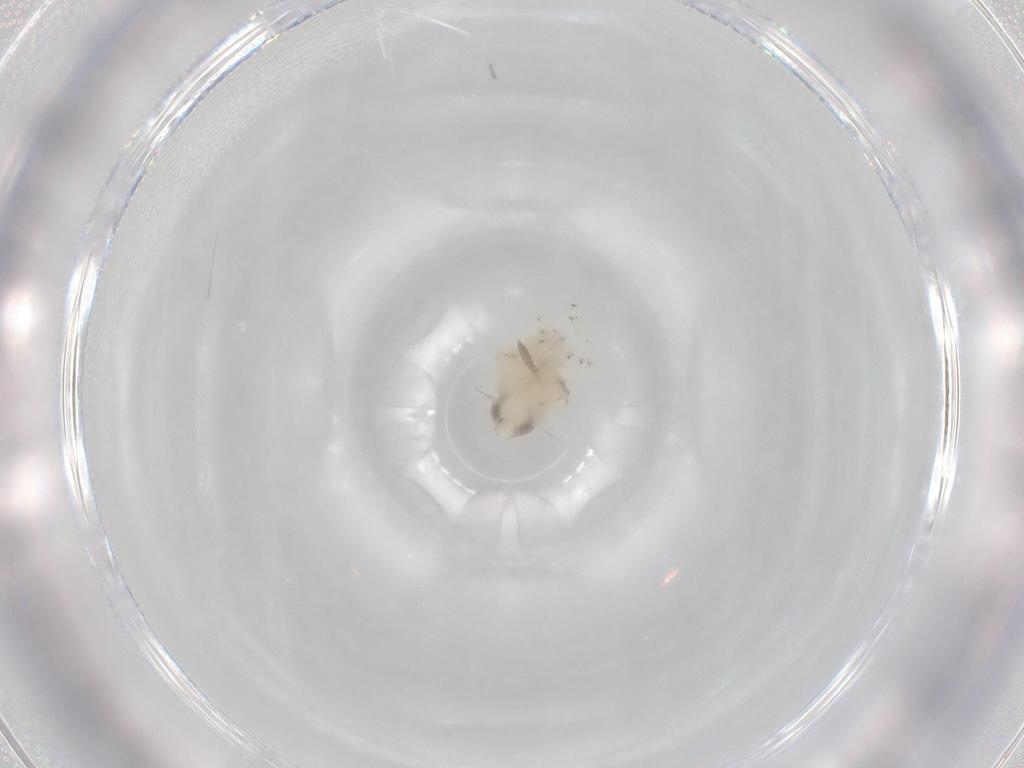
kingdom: Animalia
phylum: Arthropoda
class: Insecta
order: Hemiptera
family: Nogodinidae
